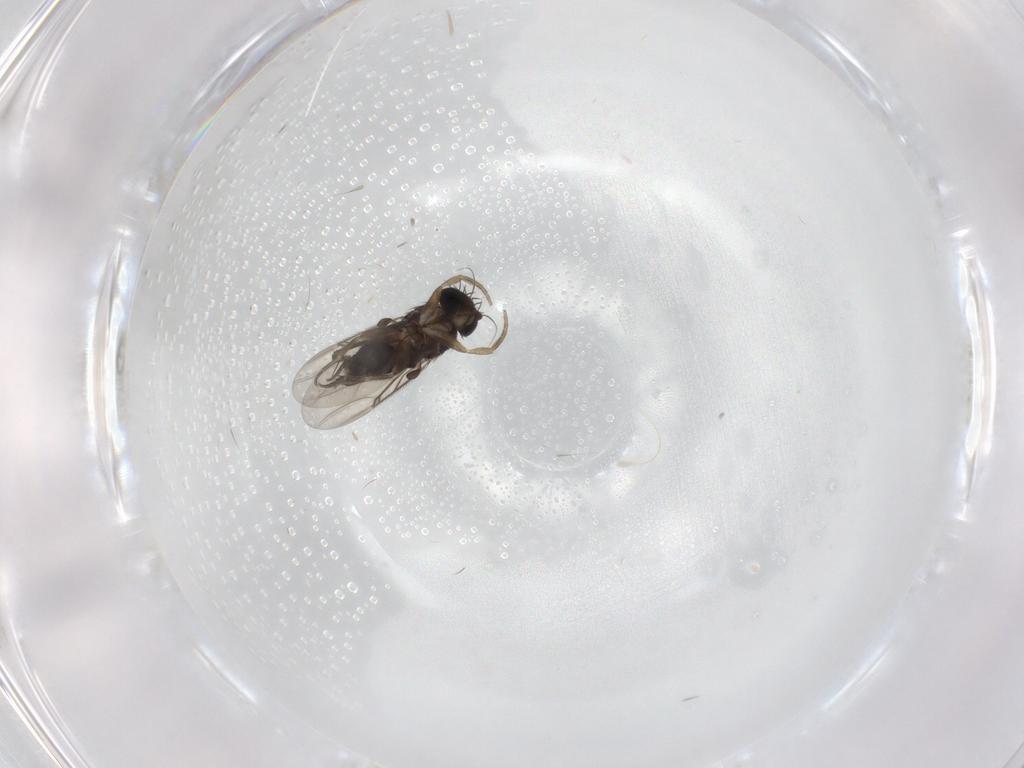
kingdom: Animalia
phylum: Arthropoda
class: Insecta
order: Diptera
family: Phoridae
